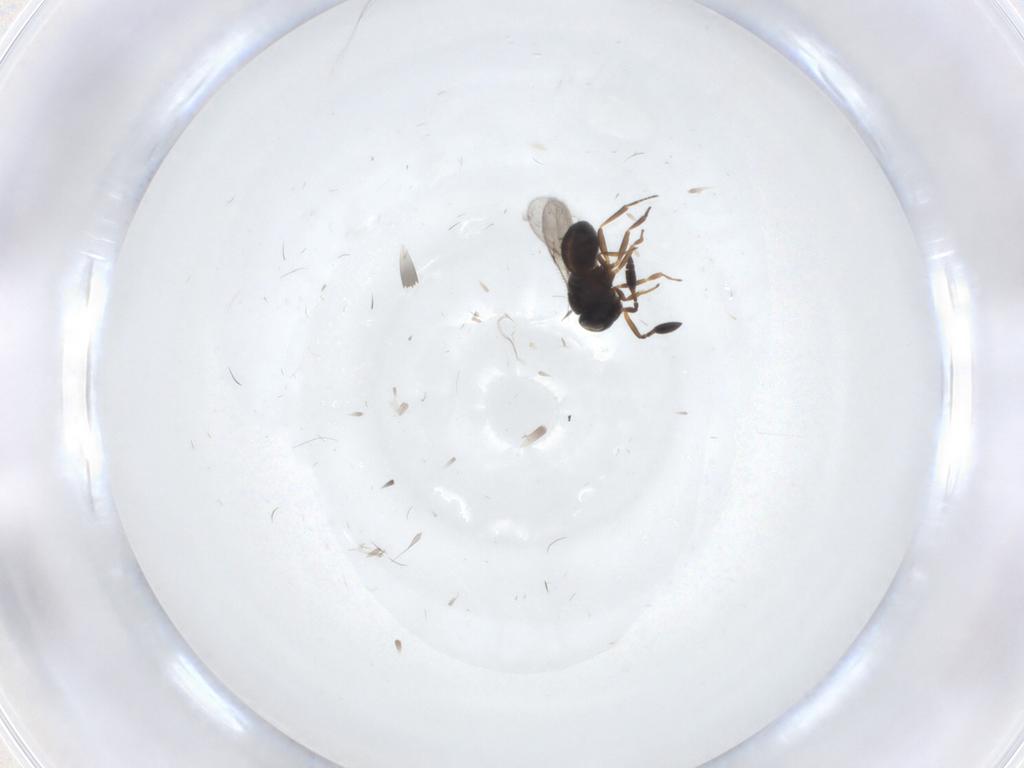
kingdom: Animalia
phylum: Arthropoda
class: Insecta
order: Hymenoptera
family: Scelionidae
